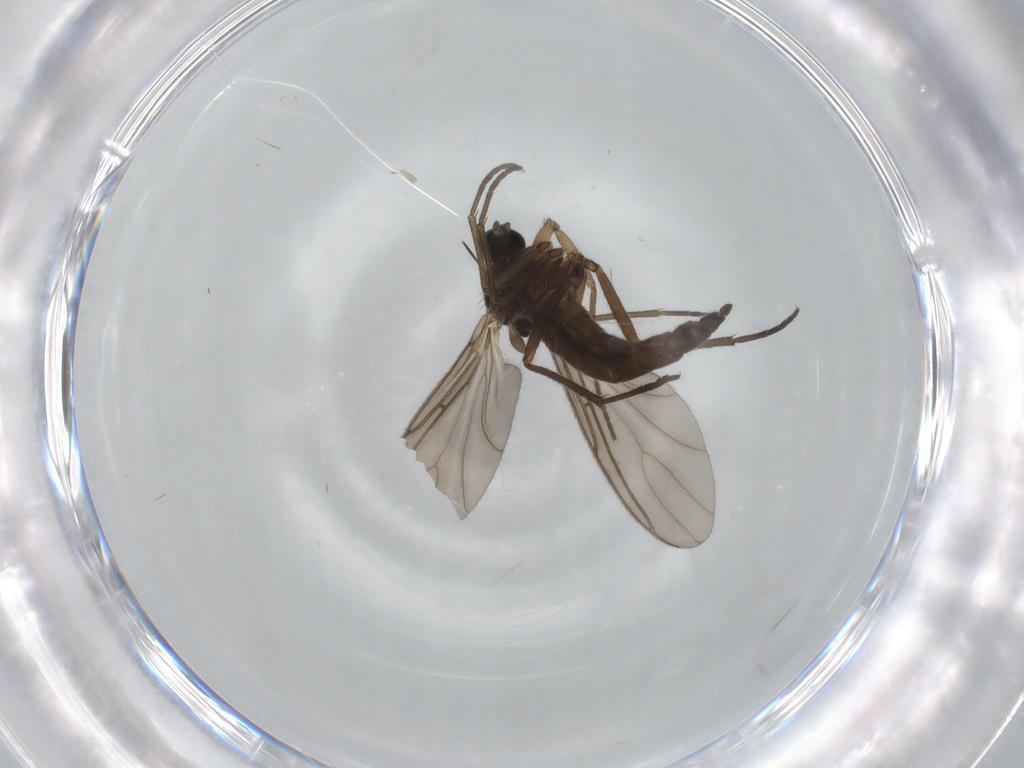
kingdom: Animalia
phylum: Arthropoda
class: Insecta
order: Diptera
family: Sciaridae
